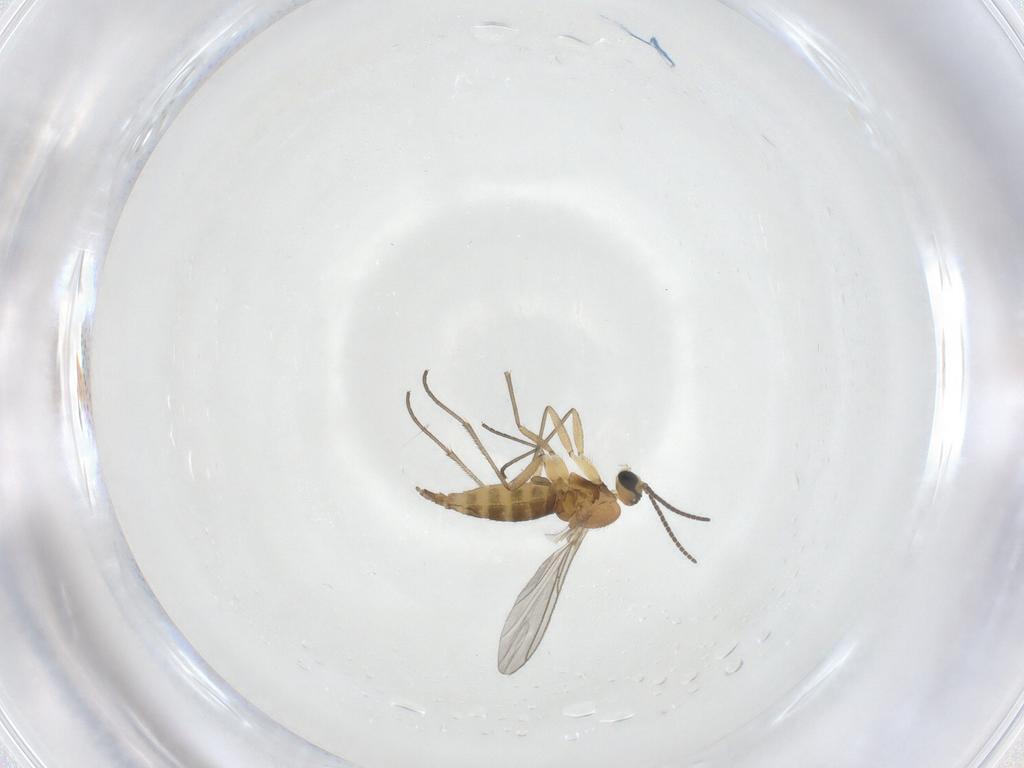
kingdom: Animalia
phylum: Arthropoda
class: Insecta
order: Diptera
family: Sciaridae
